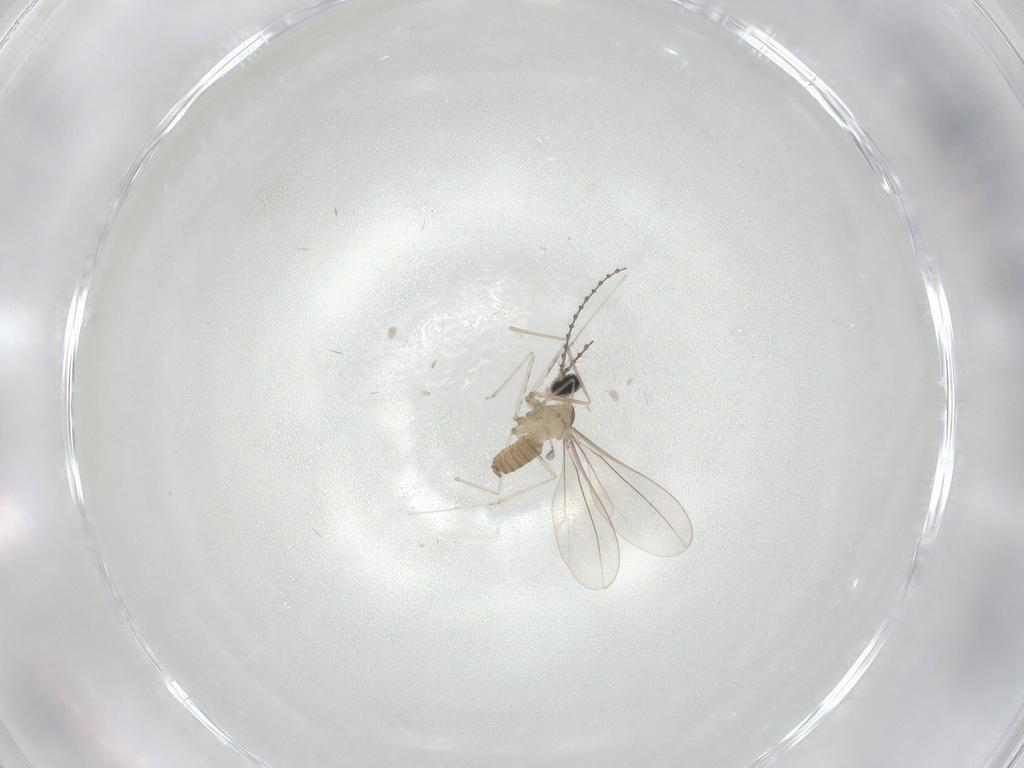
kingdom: Animalia
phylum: Arthropoda
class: Insecta
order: Diptera
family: Cecidomyiidae
